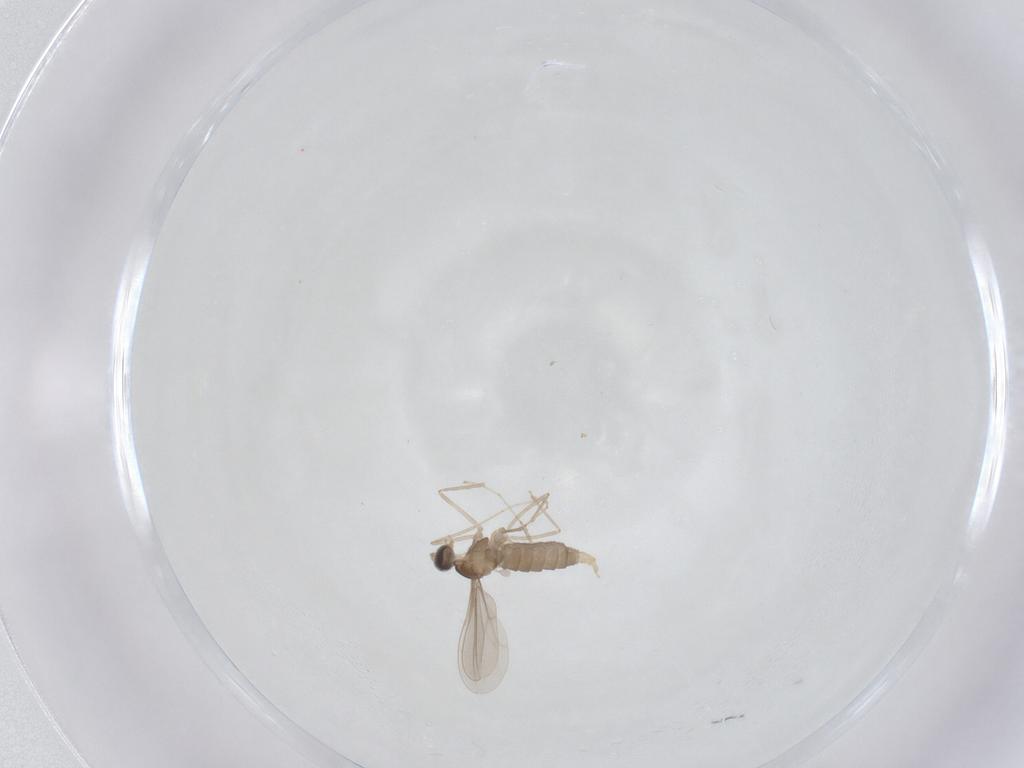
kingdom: Animalia
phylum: Arthropoda
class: Insecta
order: Diptera
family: Cecidomyiidae
